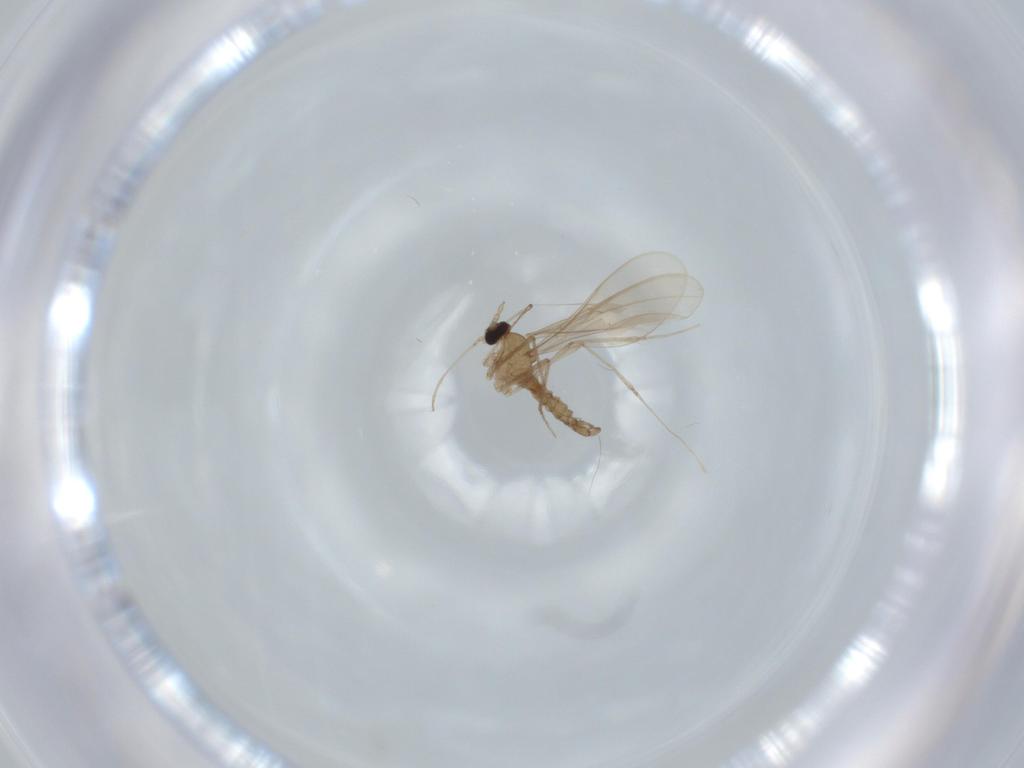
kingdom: Animalia
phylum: Arthropoda
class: Insecta
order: Diptera
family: Cecidomyiidae
